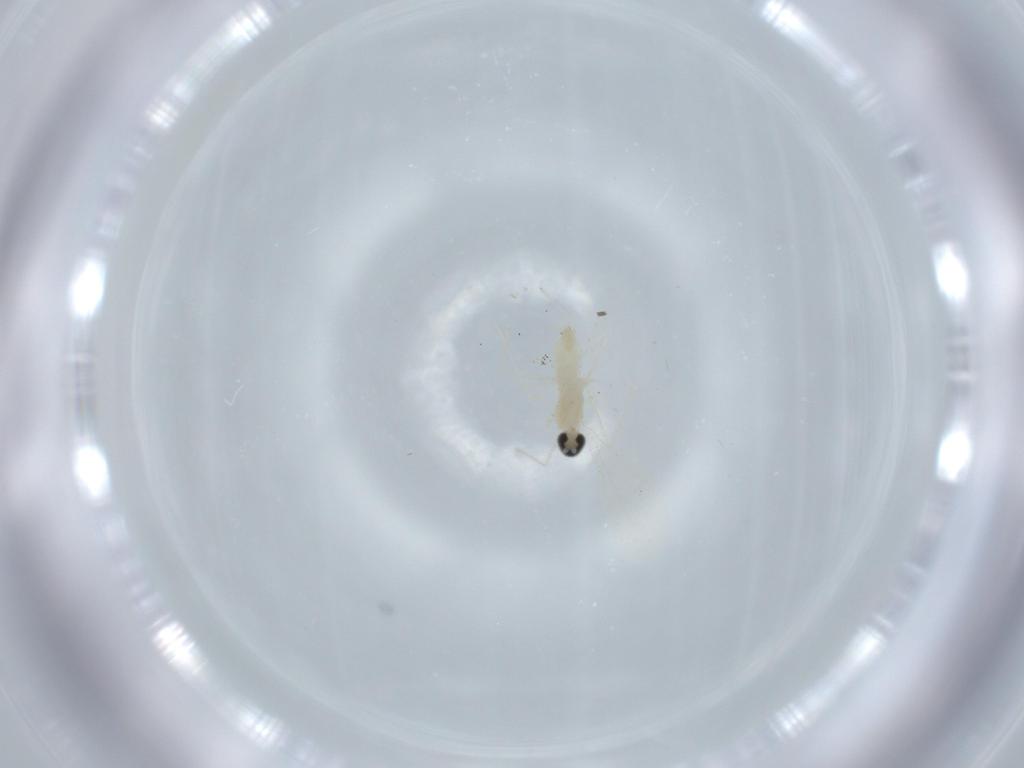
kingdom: Animalia
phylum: Arthropoda
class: Insecta
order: Diptera
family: Cecidomyiidae
